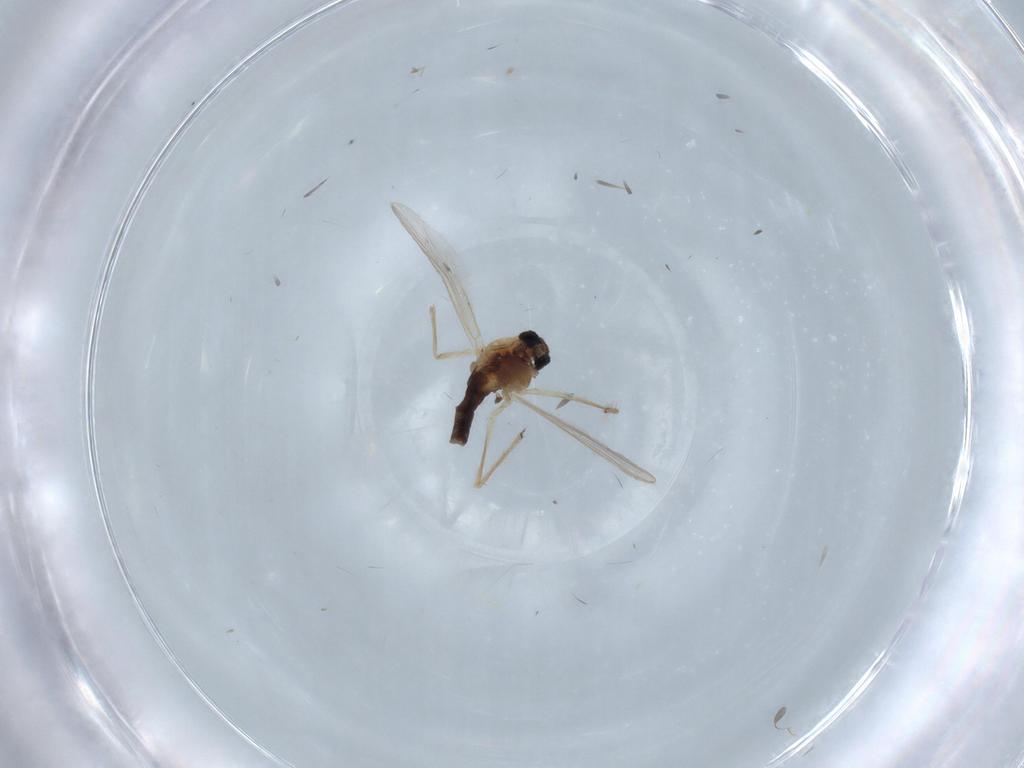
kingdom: Animalia
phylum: Arthropoda
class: Insecta
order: Diptera
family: Chironomidae
